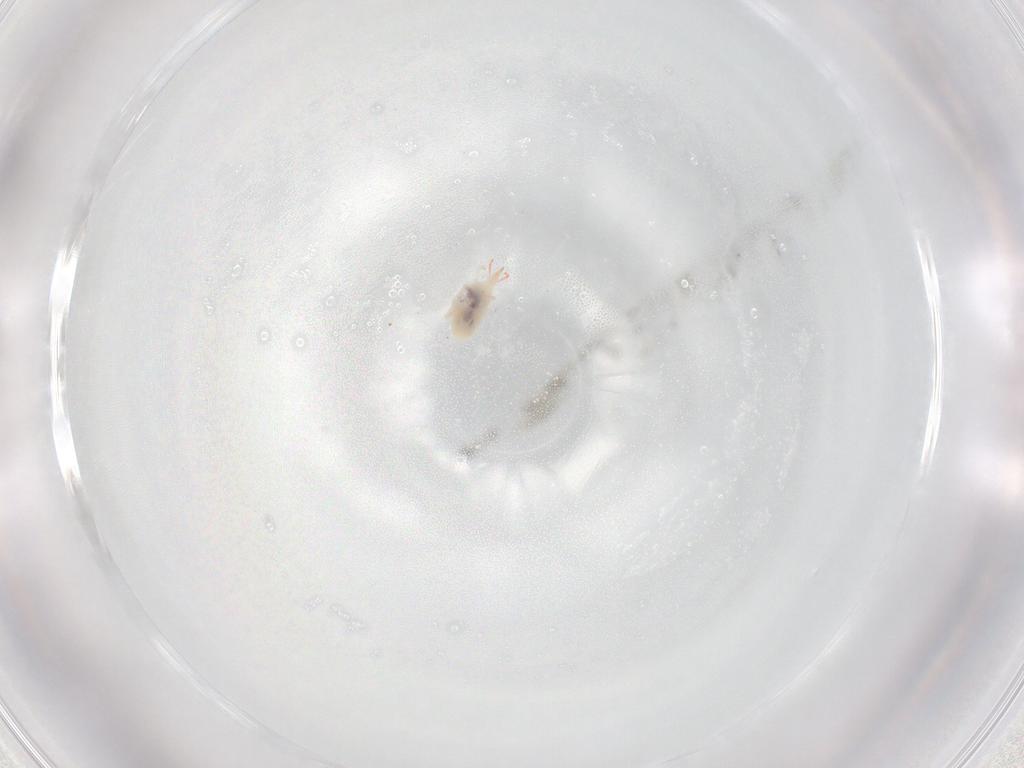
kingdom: Animalia
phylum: Arthropoda
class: Arachnida
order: Trombidiformes
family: Bdellidae
